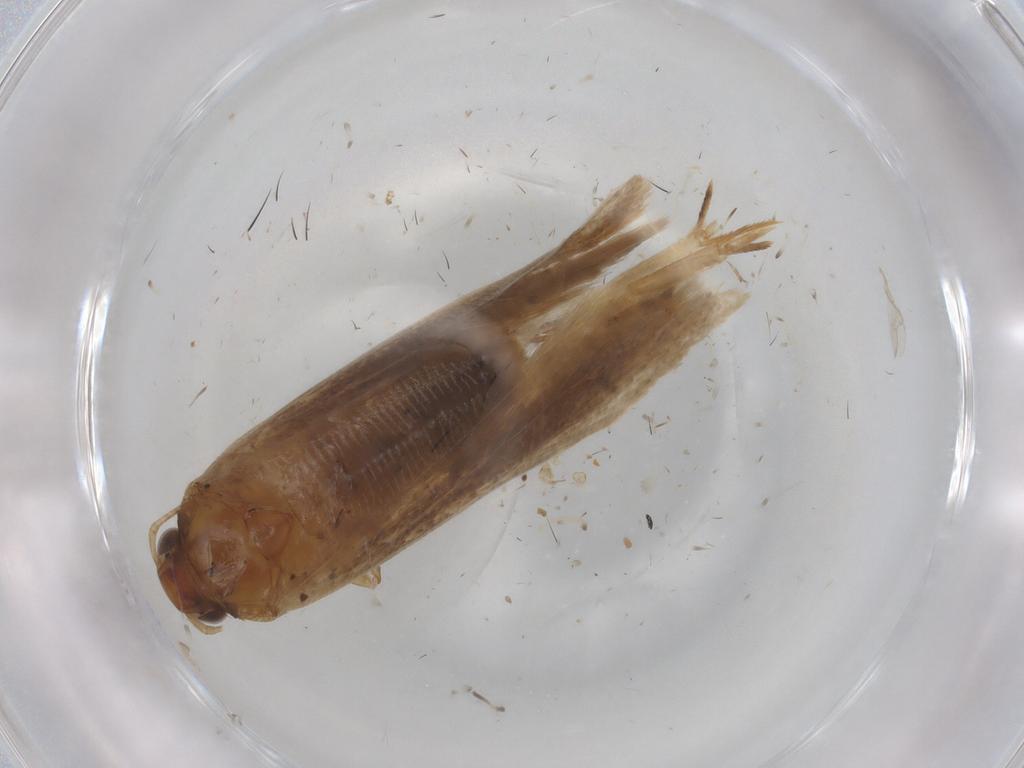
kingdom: Animalia
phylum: Arthropoda
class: Insecta
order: Lepidoptera
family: Gelechiidae
